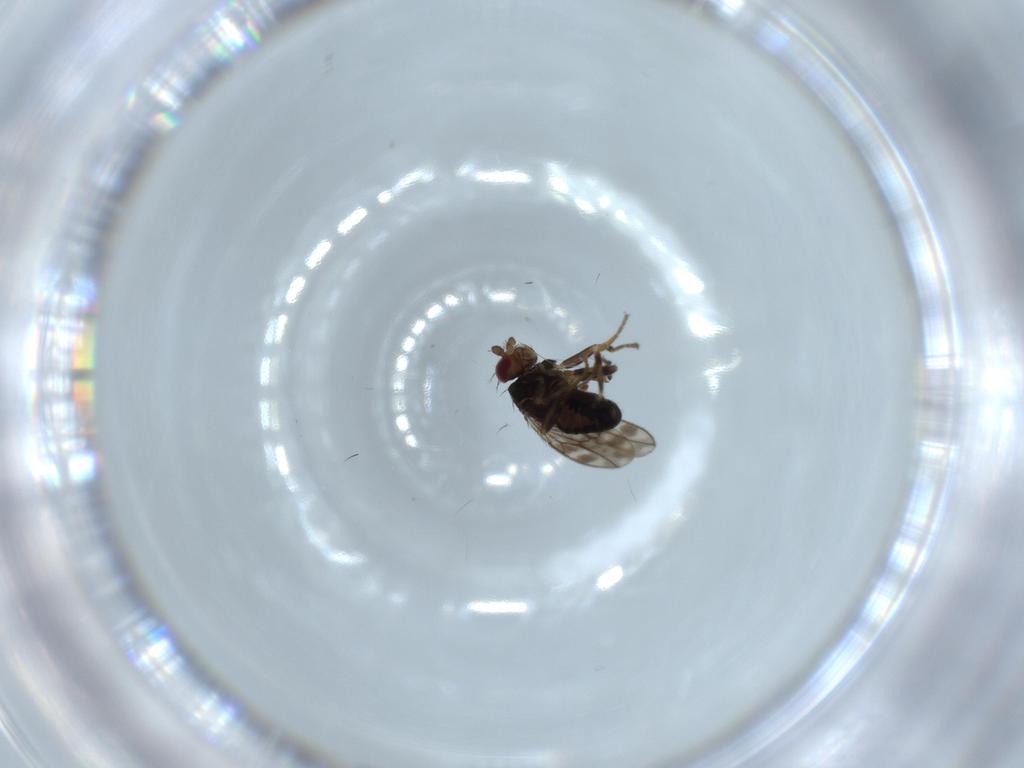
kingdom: Animalia
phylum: Arthropoda
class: Insecta
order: Diptera
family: Sphaeroceridae
